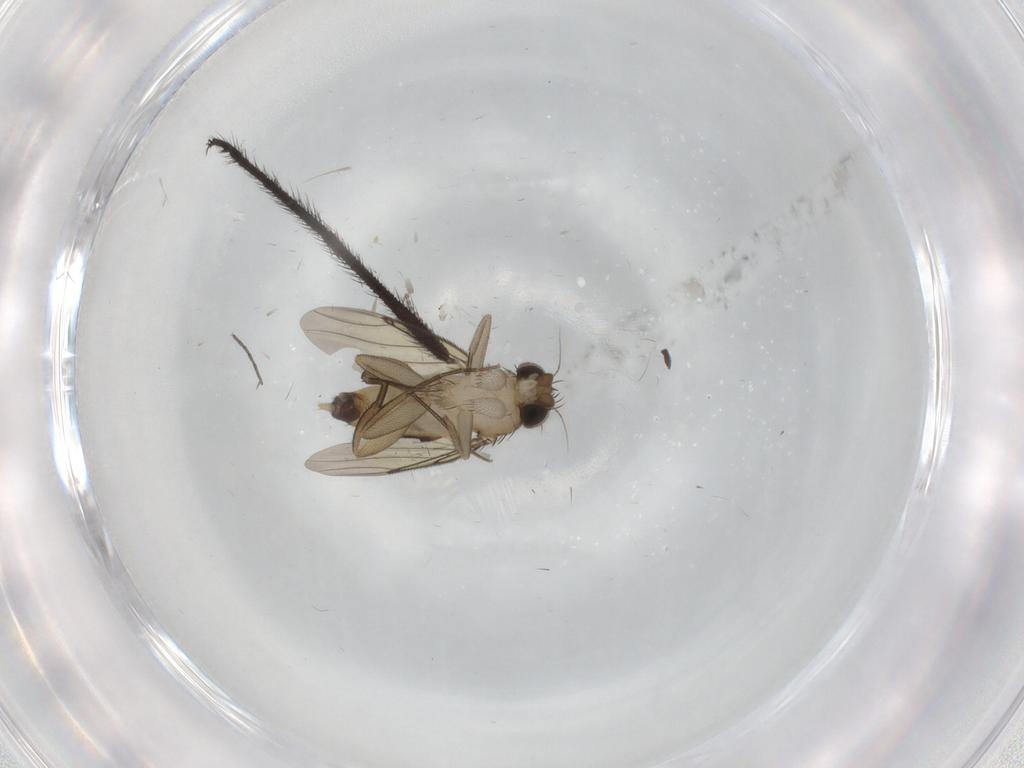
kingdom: Animalia
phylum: Arthropoda
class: Insecta
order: Diptera
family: Limoniidae
